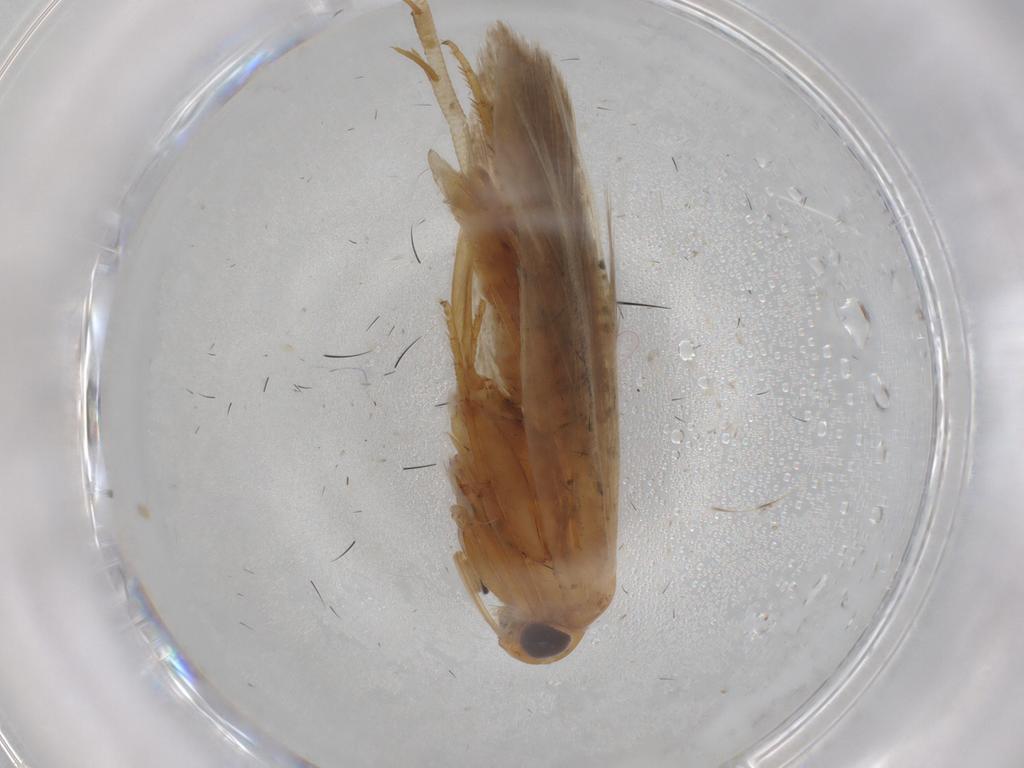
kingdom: Animalia
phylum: Arthropoda
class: Insecta
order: Lepidoptera
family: Gelechiidae
